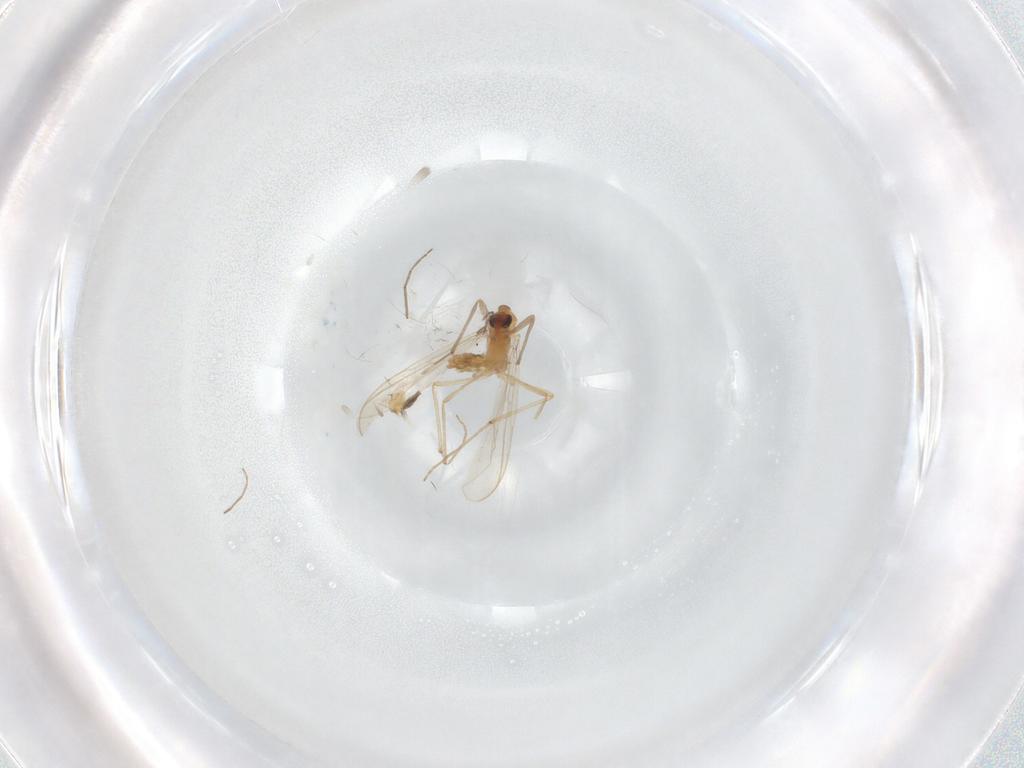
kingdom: Animalia
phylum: Arthropoda
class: Insecta
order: Diptera
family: Chironomidae
